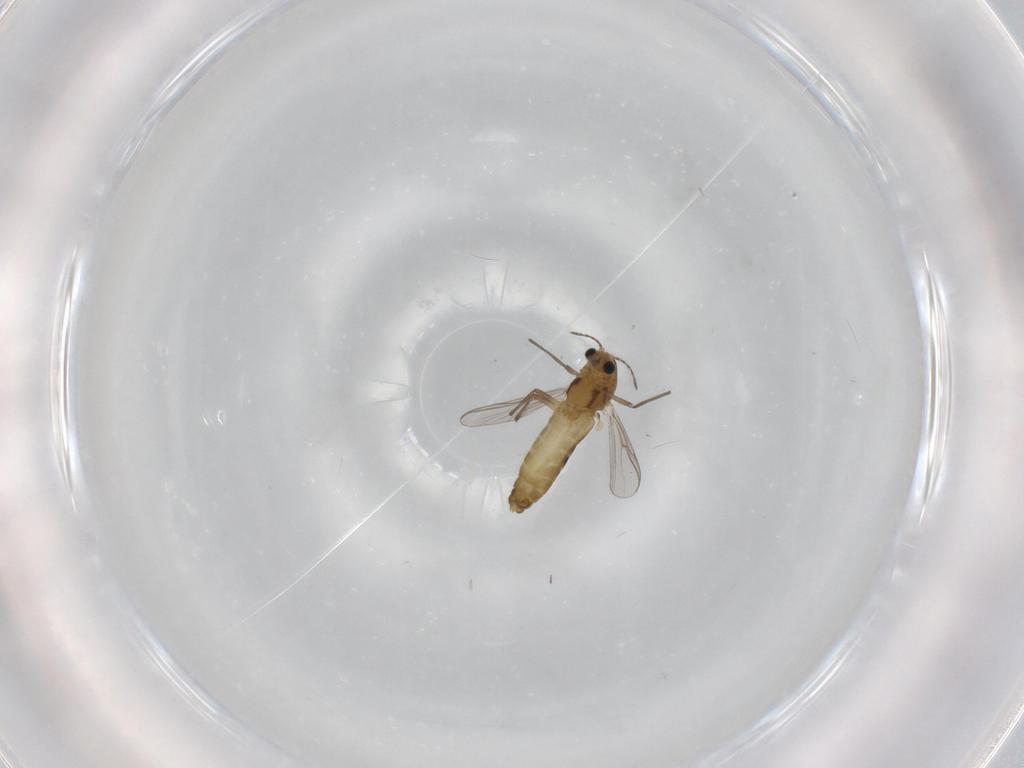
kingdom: Animalia
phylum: Arthropoda
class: Insecta
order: Diptera
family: Chironomidae
